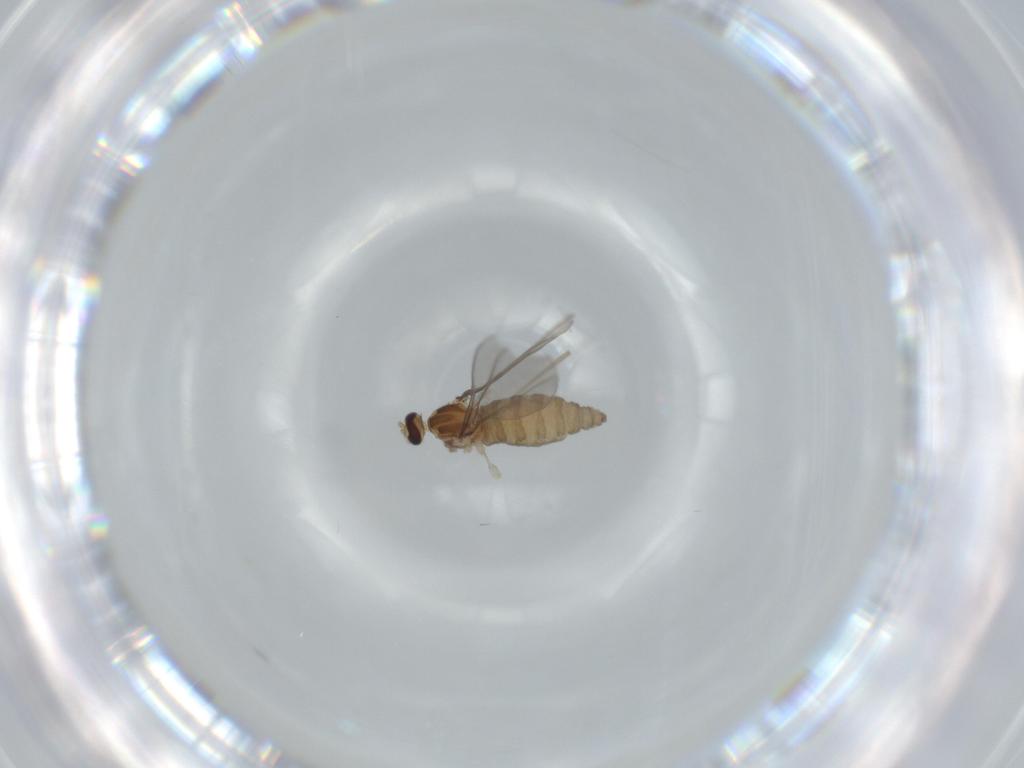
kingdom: Animalia
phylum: Arthropoda
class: Insecta
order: Diptera
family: Cecidomyiidae
